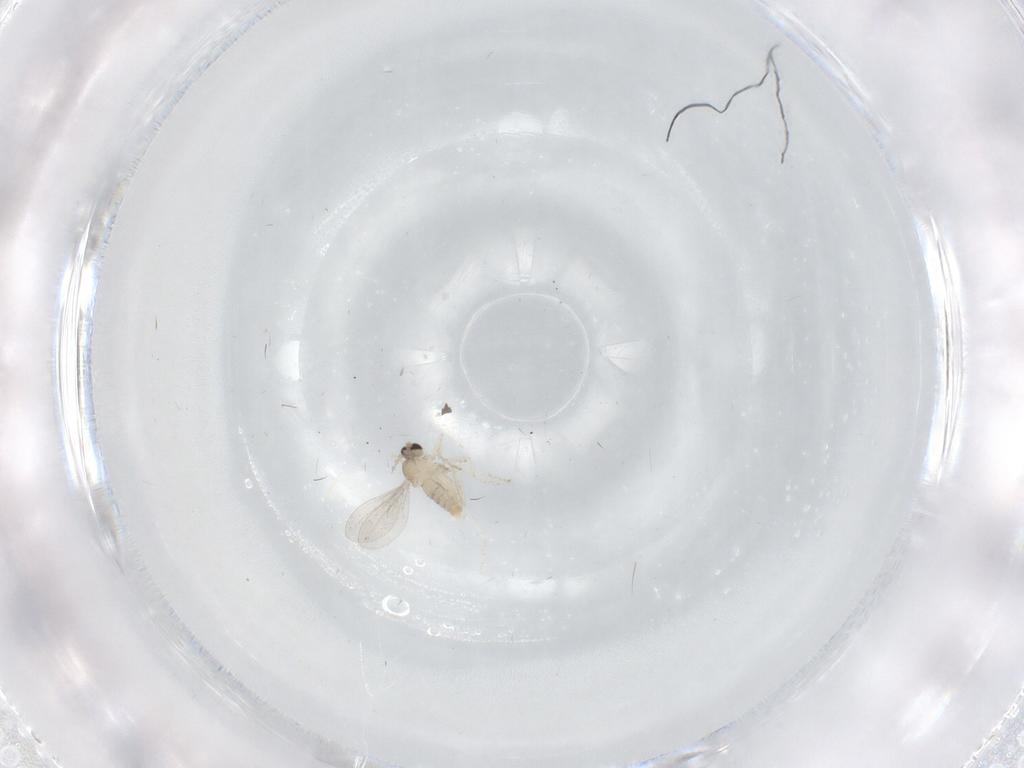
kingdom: Animalia
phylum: Arthropoda
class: Insecta
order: Diptera
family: Cecidomyiidae
